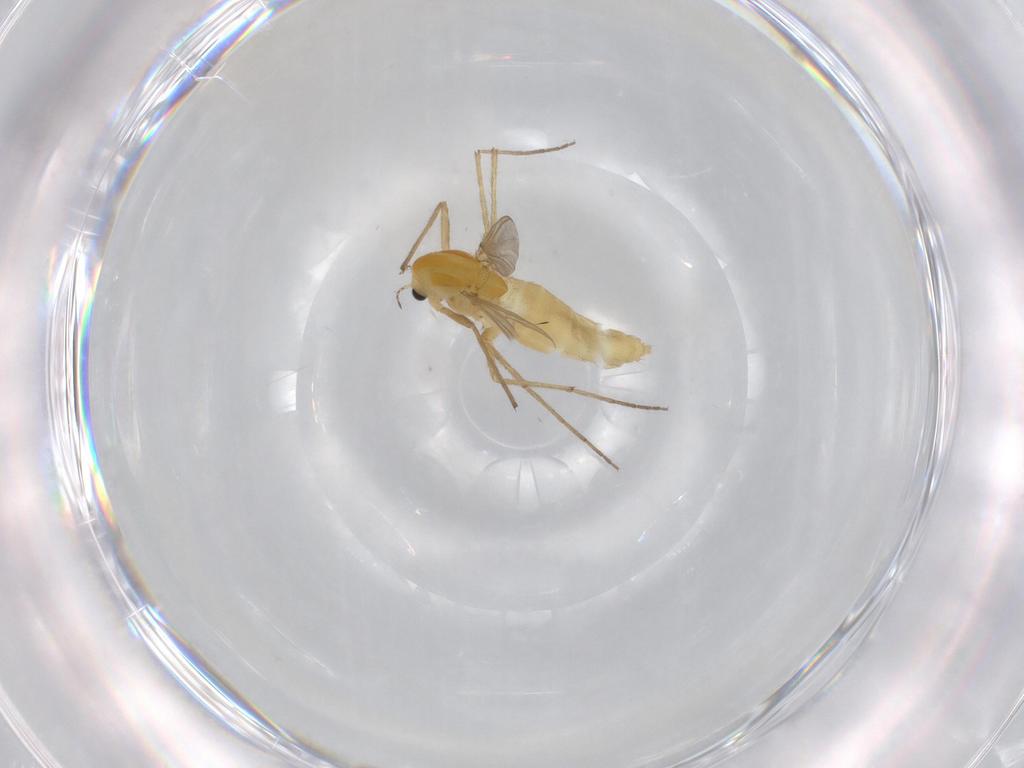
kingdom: Animalia
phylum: Arthropoda
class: Insecta
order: Diptera
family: Chironomidae
